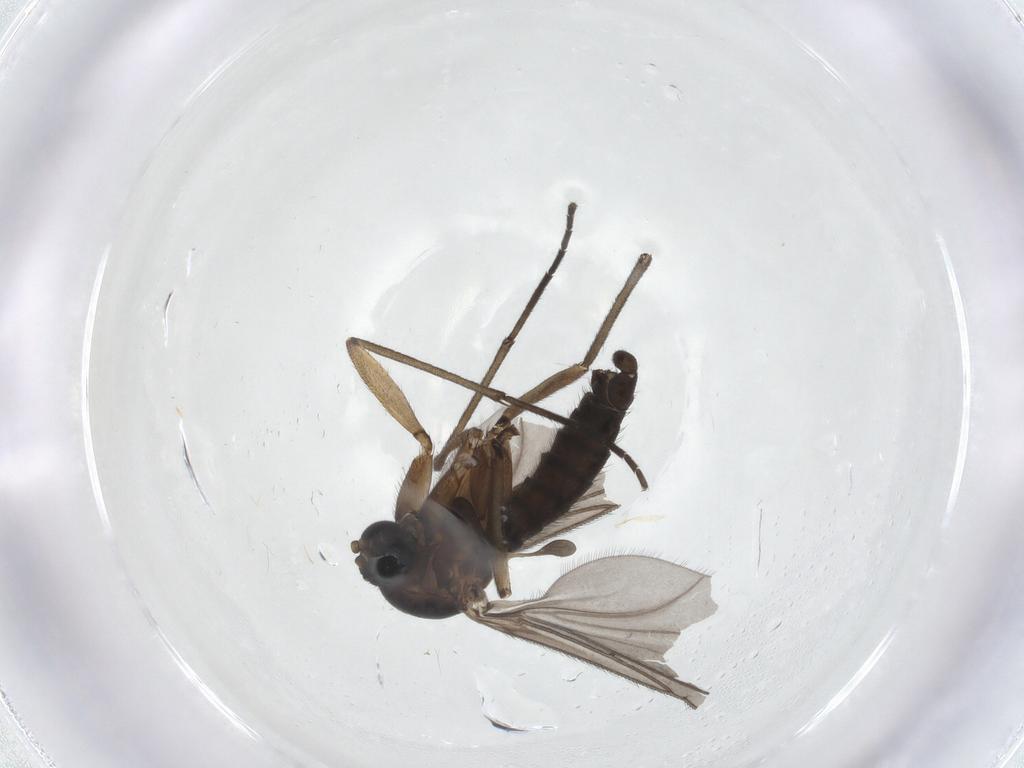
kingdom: Animalia
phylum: Arthropoda
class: Insecta
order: Diptera
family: Sciaridae
